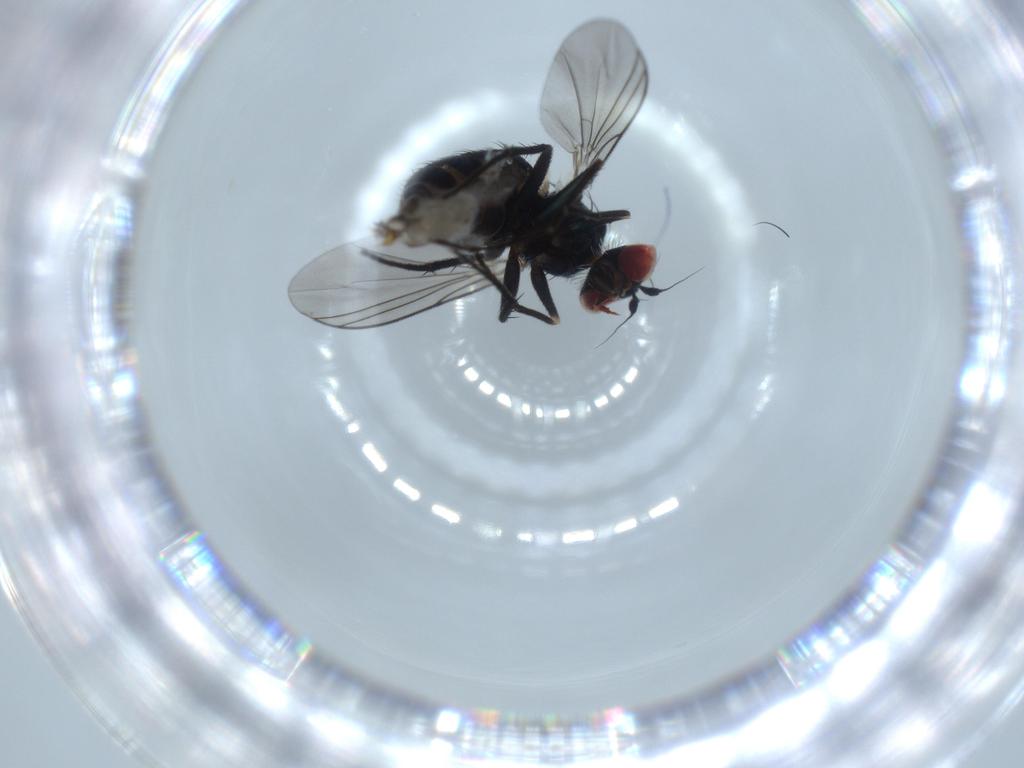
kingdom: Animalia
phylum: Arthropoda
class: Insecta
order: Diptera
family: Dolichopodidae
